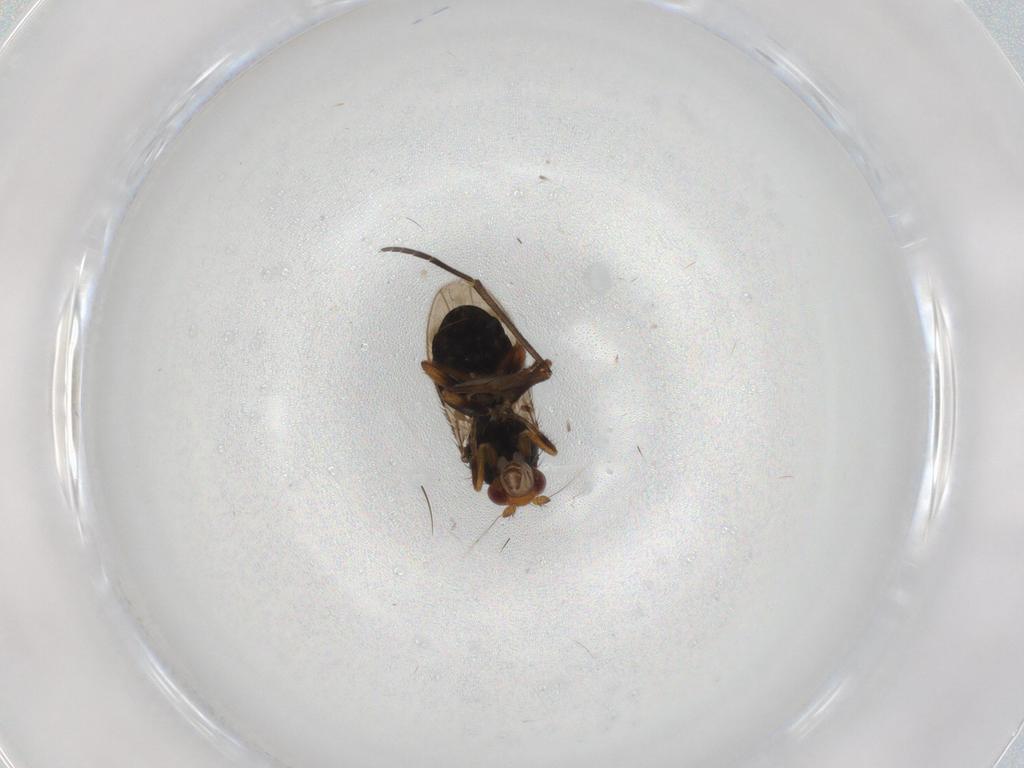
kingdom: Animalia
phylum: Arthropoda
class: Insecta
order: Diptera
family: Sphaeroceridae
